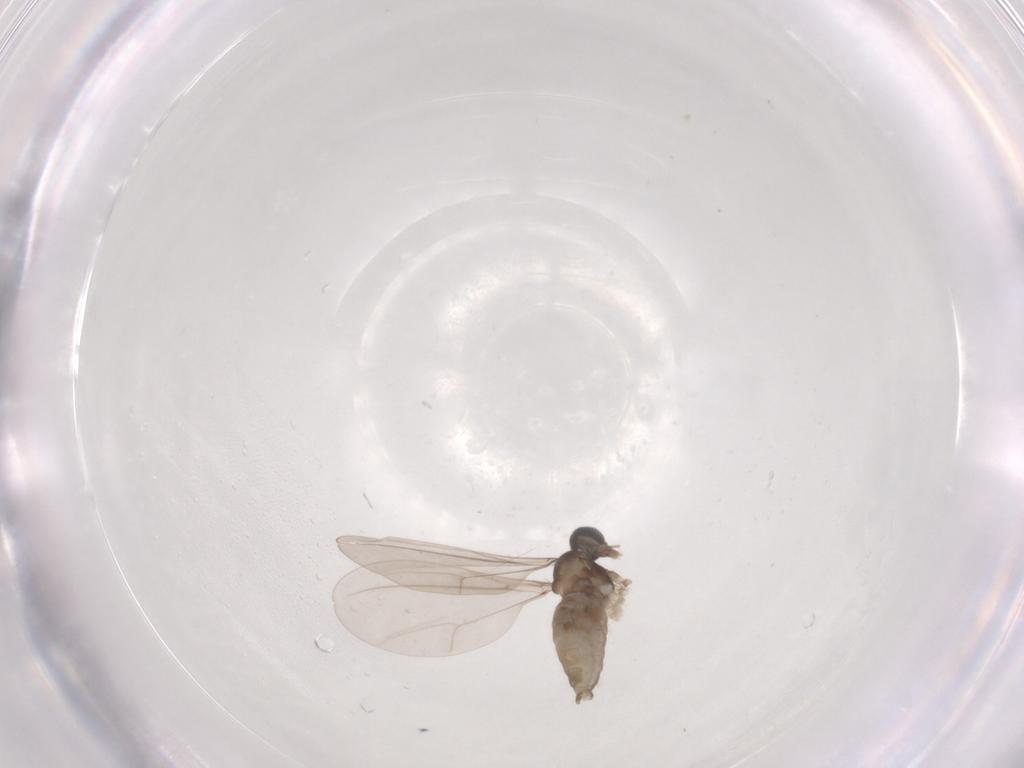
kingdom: Animalia
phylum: Arthropoda
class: Insecta
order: Diptera
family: Cecidomyiidae
